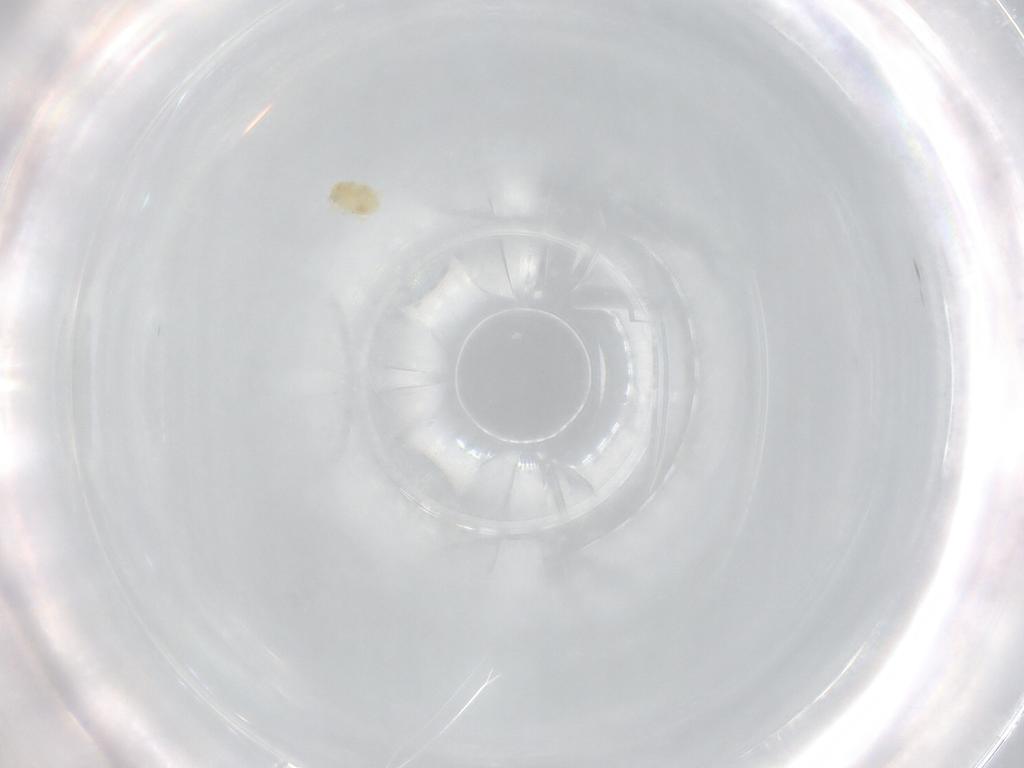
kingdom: Animalia
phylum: Arthropoda
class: Arachnida
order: Trombidiformes
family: Eupodidae
